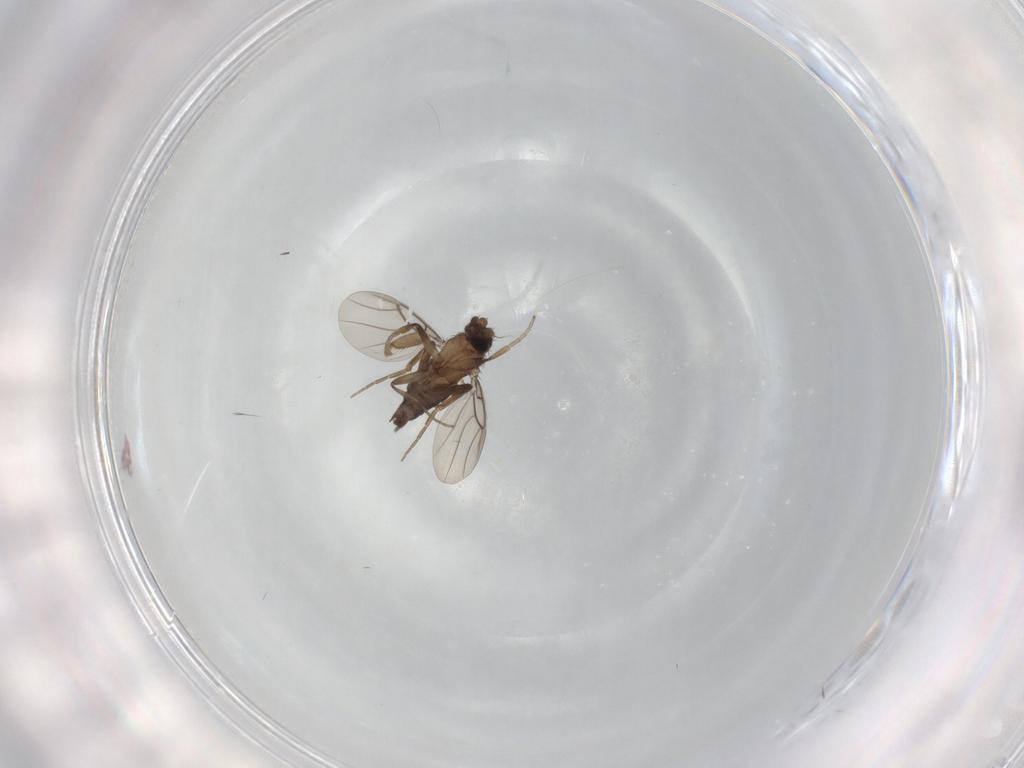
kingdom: Animalia
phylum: Arthropoda
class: Insecta
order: Diptera
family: Phoridae
